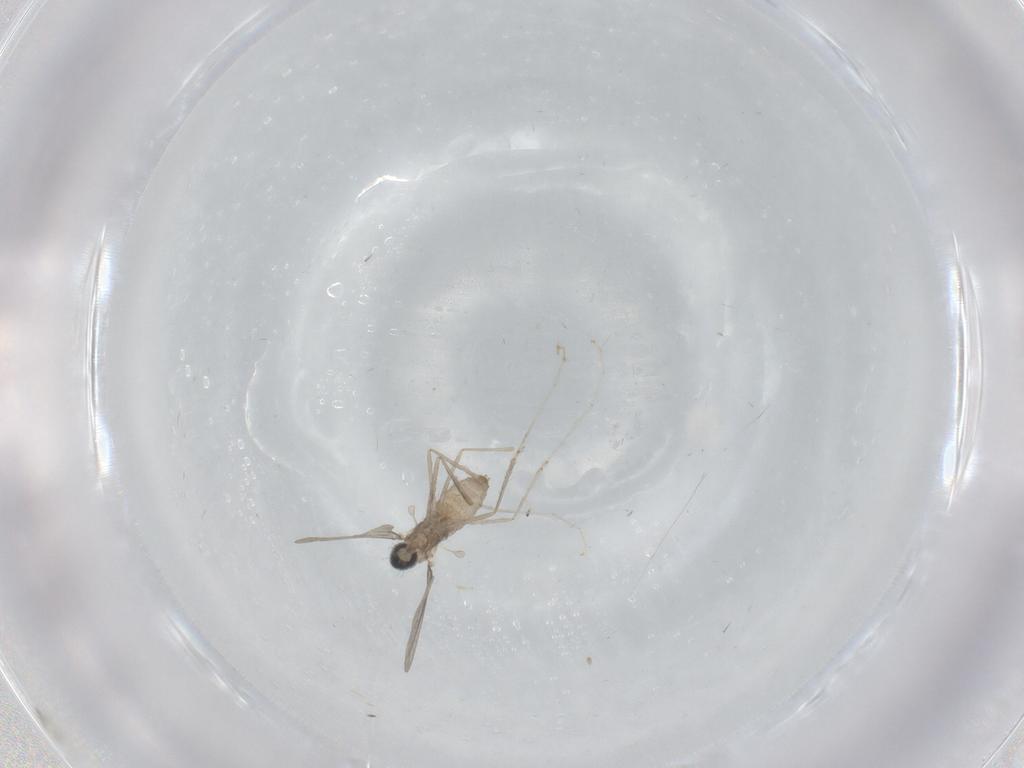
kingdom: Animalia
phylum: Arthropoda
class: Insecta
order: Diptera
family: Cecidomyiidae
